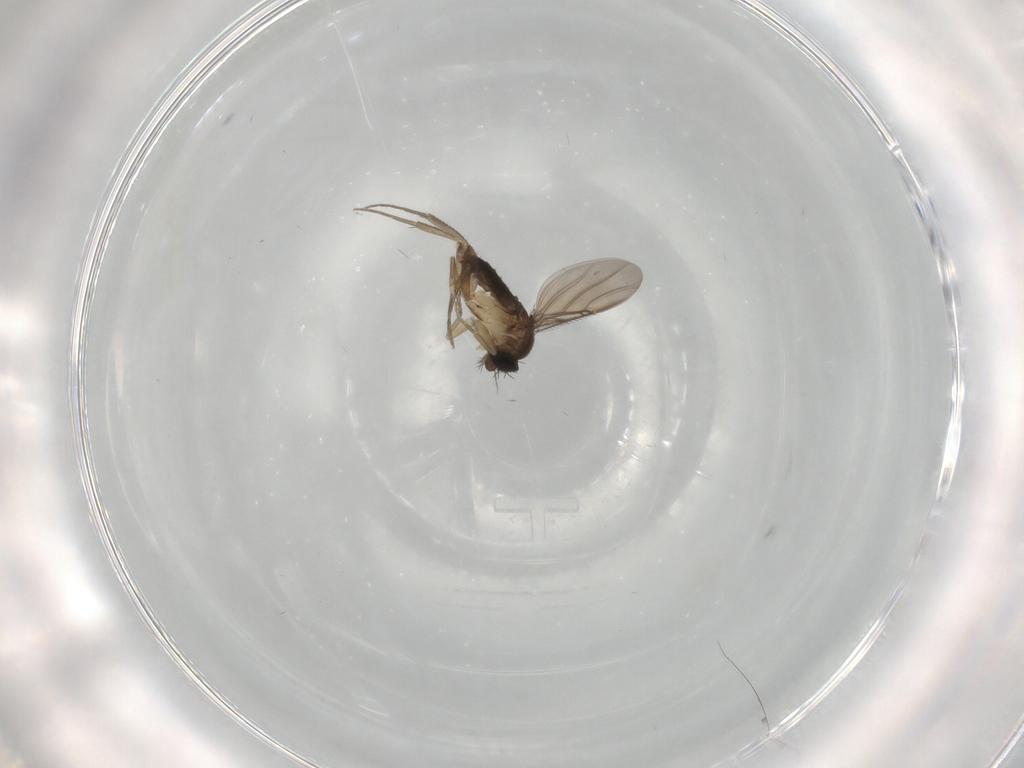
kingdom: Animalia
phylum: Arthropoda
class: Insecta
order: Diptera
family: Phoridae
